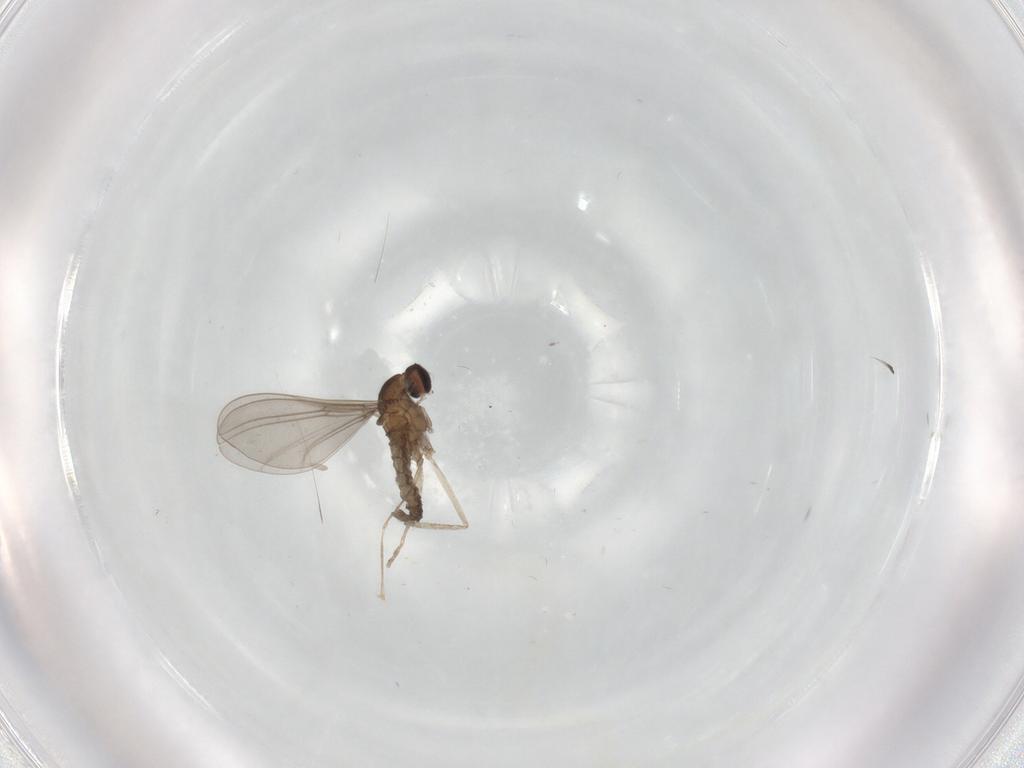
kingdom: Animalia
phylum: Arthropoda
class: Insecta
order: Diptera
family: Cecidomyiidae
